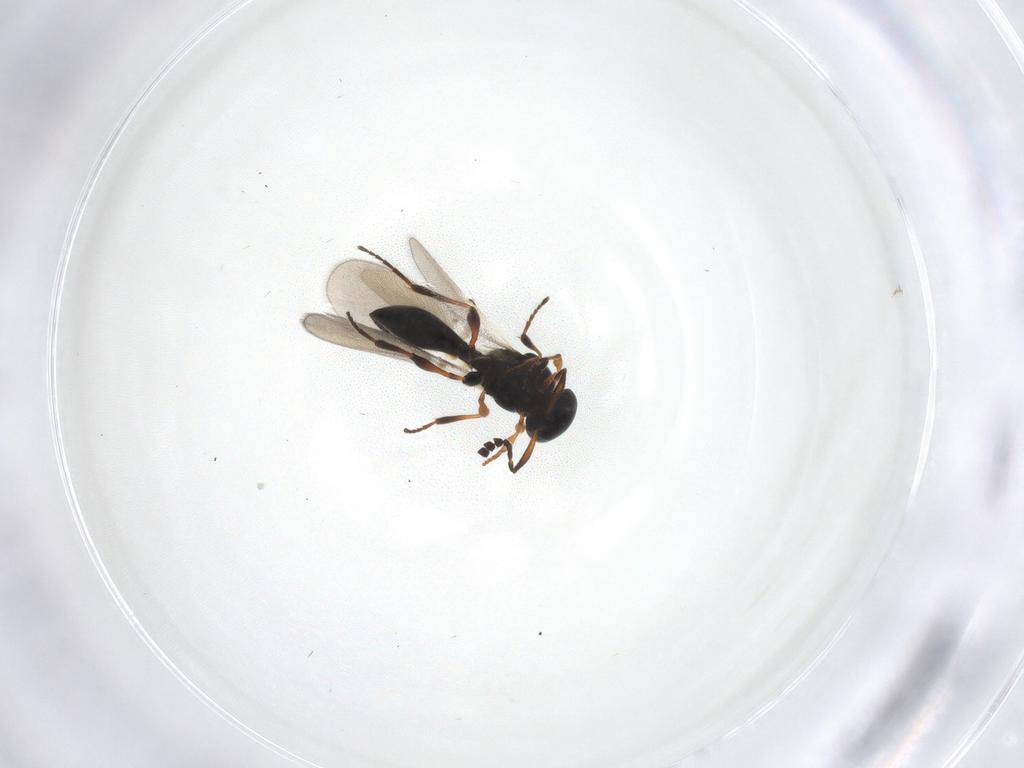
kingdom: Animalia
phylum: Arthropoda
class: Insecta
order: Hymenoptera
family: Platygastridae
